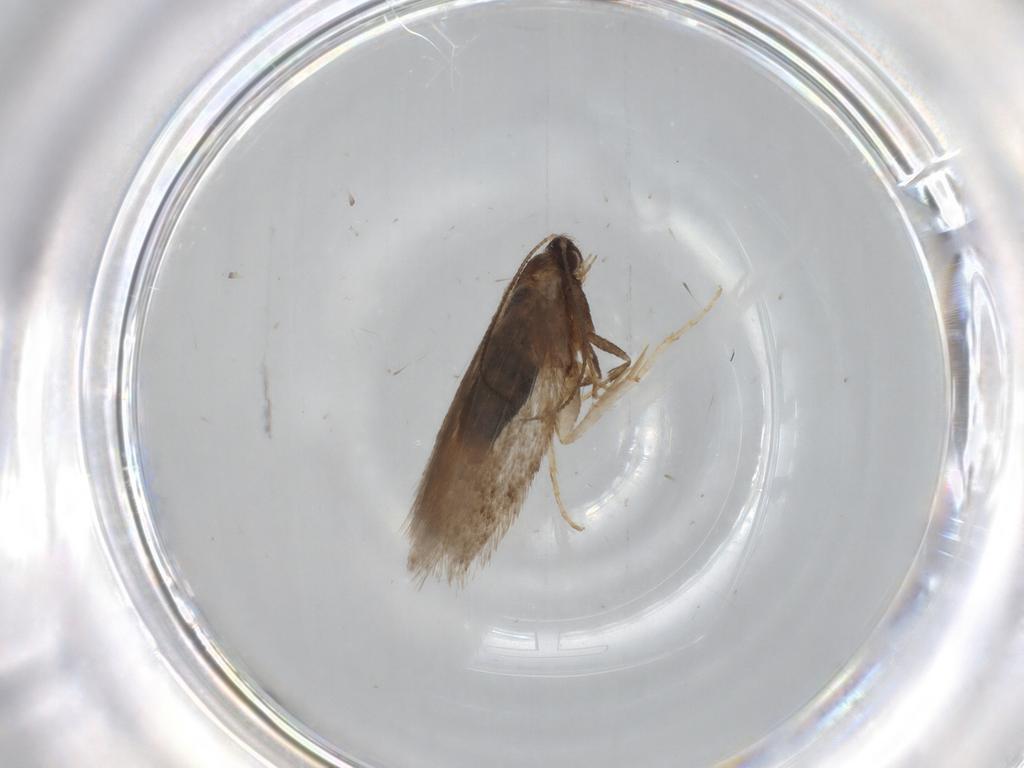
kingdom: Animalia
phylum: Arthropoda
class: Insecta
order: Lepidoptera
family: Nepticulidae
